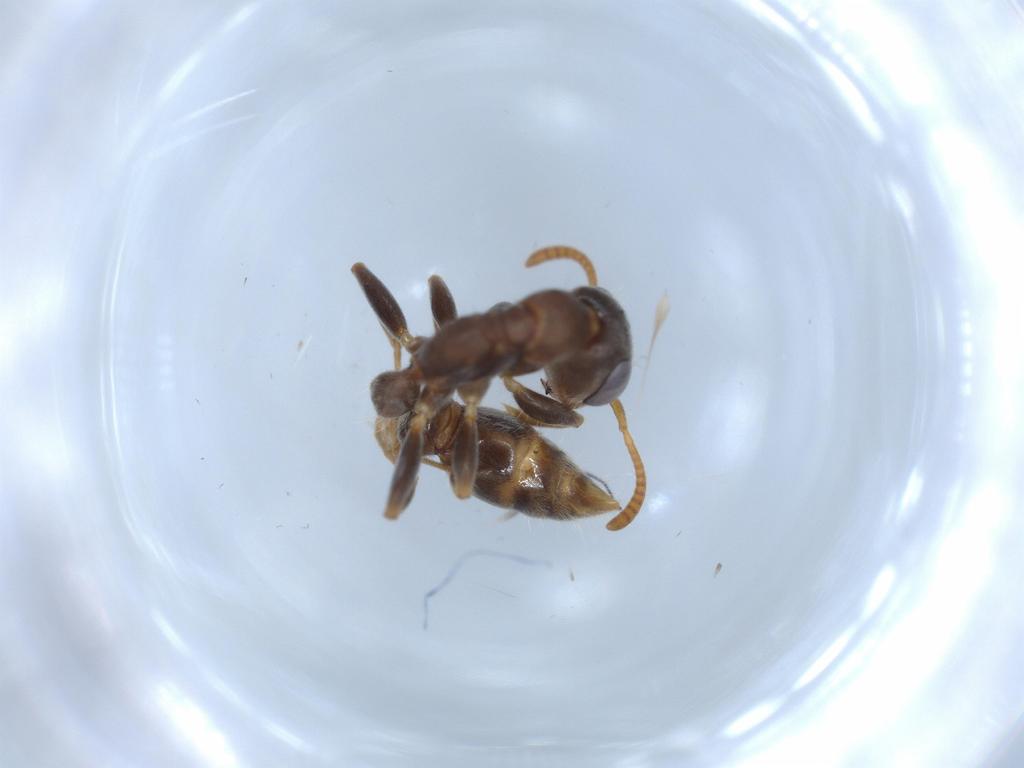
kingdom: Animalia
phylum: Arthropoda
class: Insecta
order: Hymenoptera
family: Formicidae
